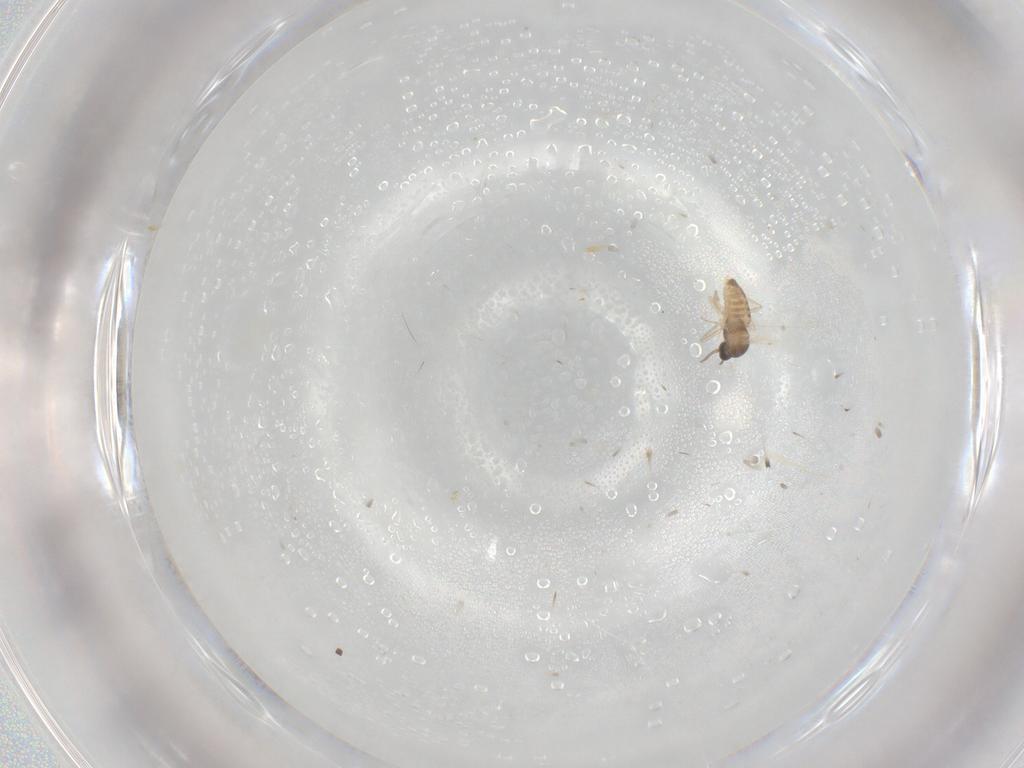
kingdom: Animalia
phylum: Arthropoda
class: Insecta
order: Diptera
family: Cecidomyiidae
